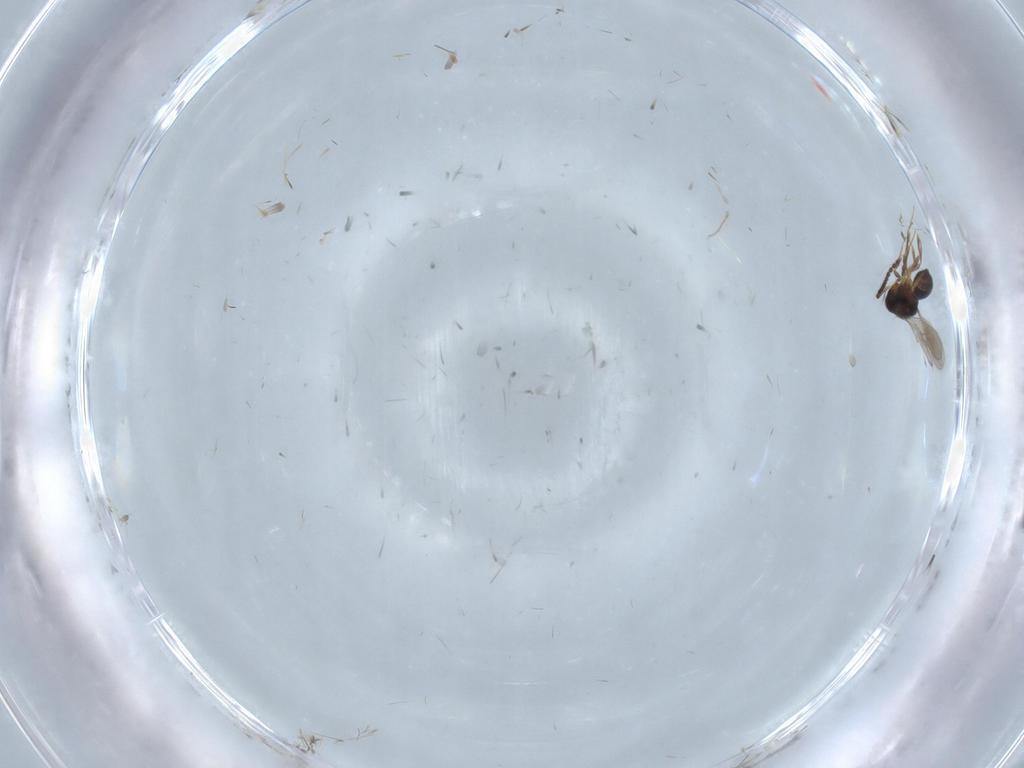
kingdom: Animalia
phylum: Arthropoda
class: Insecta
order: Hymenoptera
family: Scelionidae
